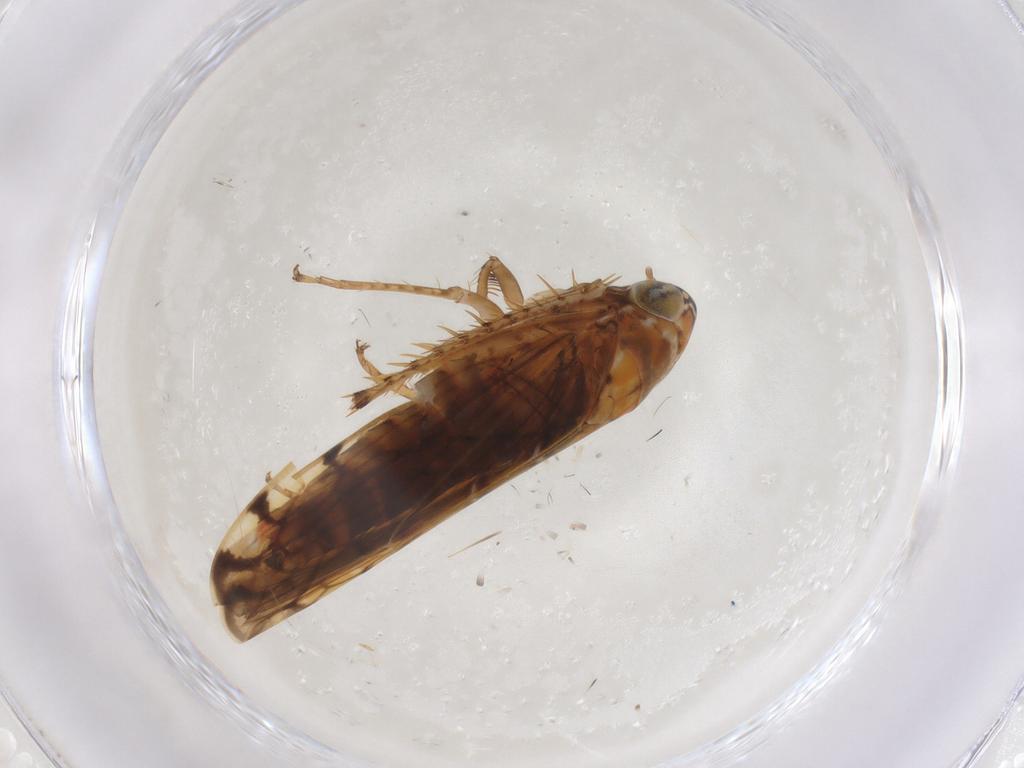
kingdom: Animalia
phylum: Arthropoda
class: Insecta
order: Hemiptera
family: Cicadellidae
